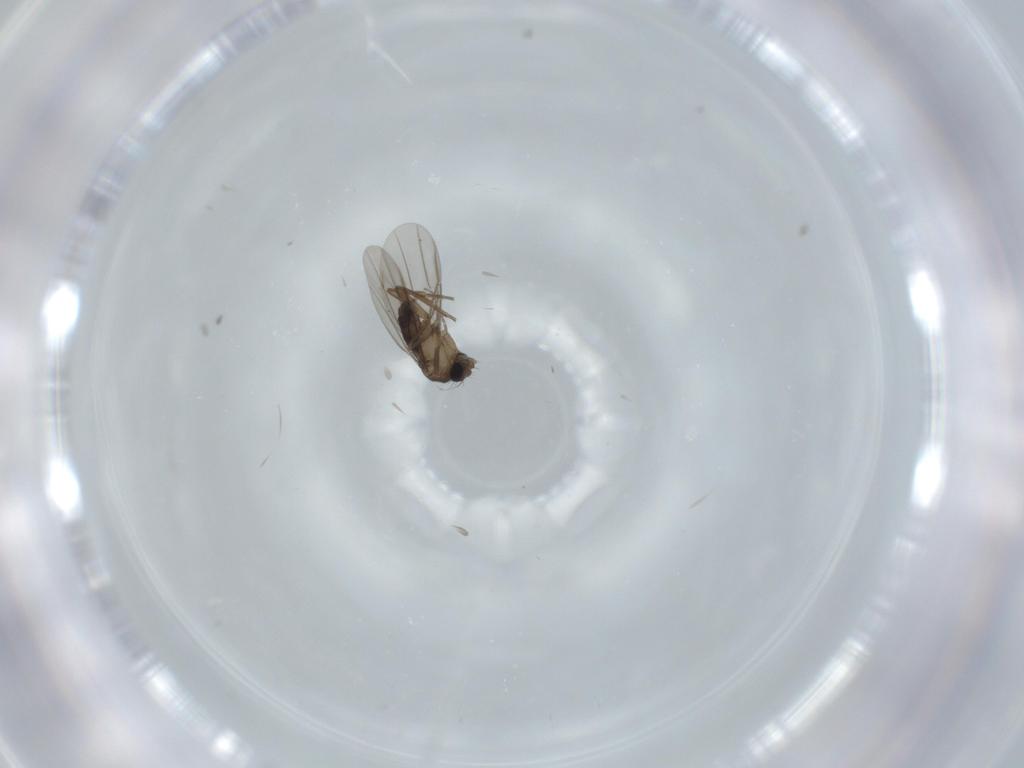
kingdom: Animalia
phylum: Arthropoda
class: Insecta
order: Diptera
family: Phoridae
